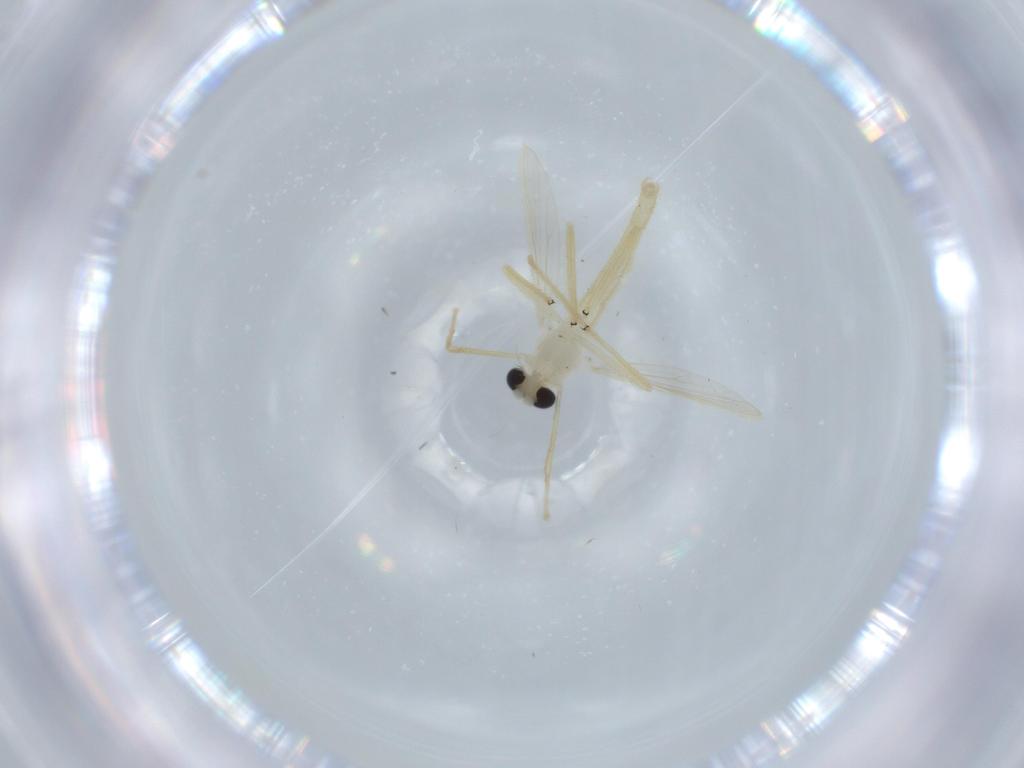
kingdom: Animalia
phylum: Arthropoda
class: Insecta
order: Diptera
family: Chironomidae
